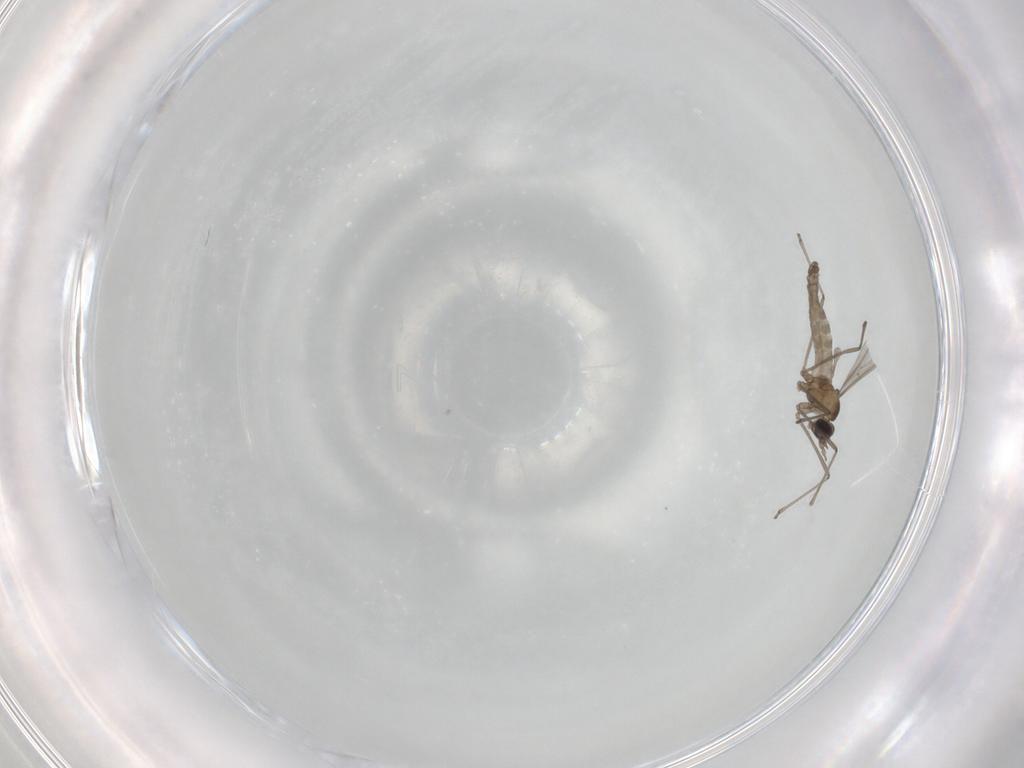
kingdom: Animalia
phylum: Arthropoda
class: Insecta
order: Diptera
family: Cecidomyiidae
